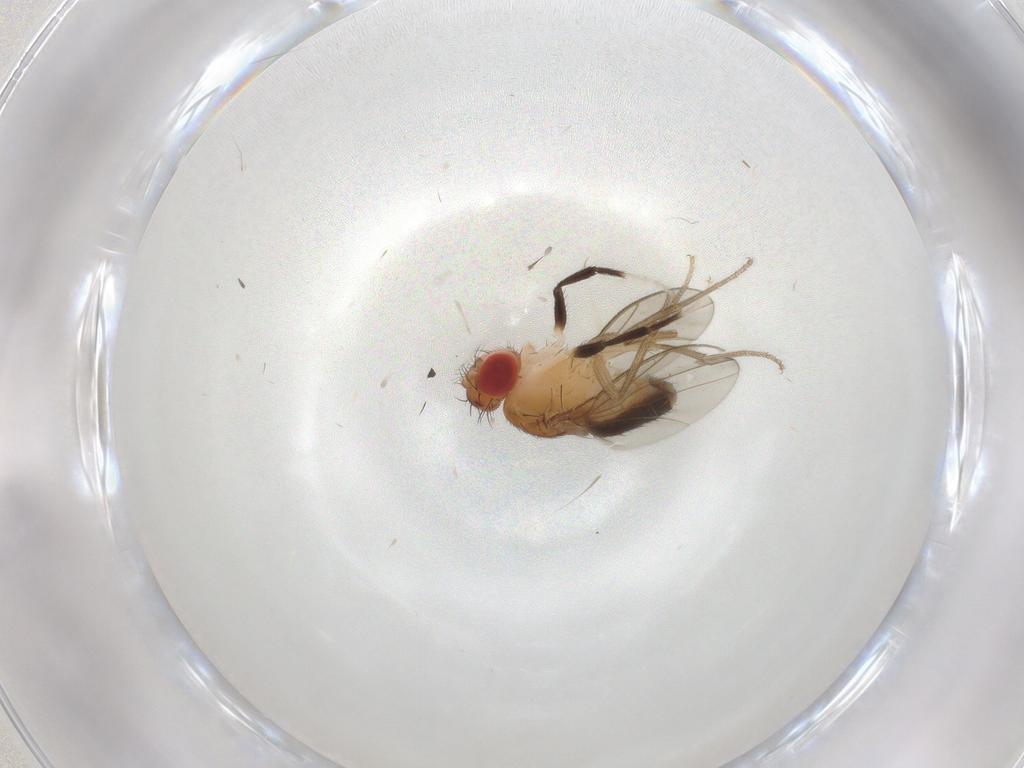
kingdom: Animalia
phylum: Arthropoda
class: Insecta
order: Diptera
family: Drosophilidae
